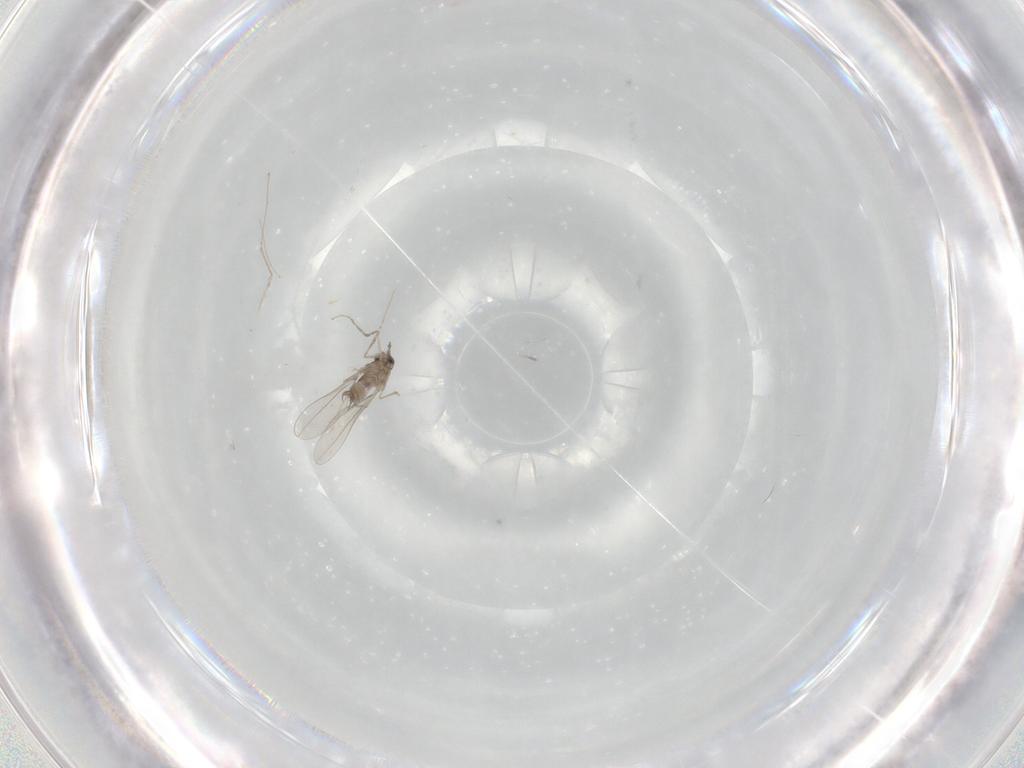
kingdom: Animalia
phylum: Arthropoda
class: Insecta
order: Diptera
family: Cecidomyiidae
